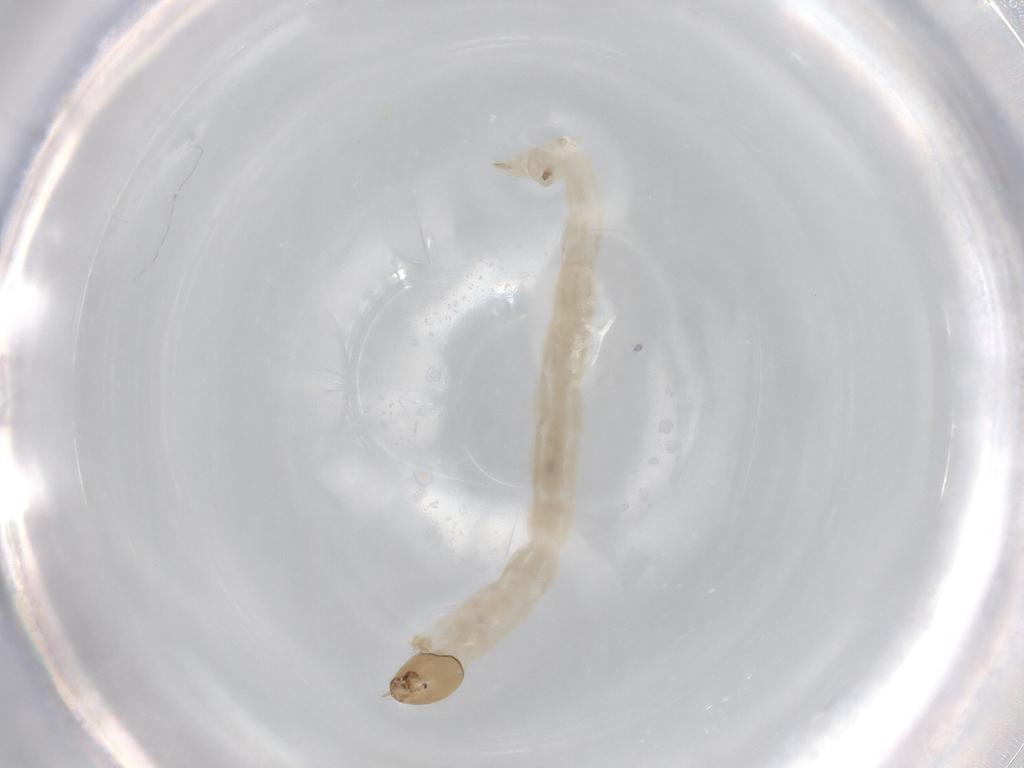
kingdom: Animalia
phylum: Arthropoda
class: Insecta
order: Diptera
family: Chironomidae
